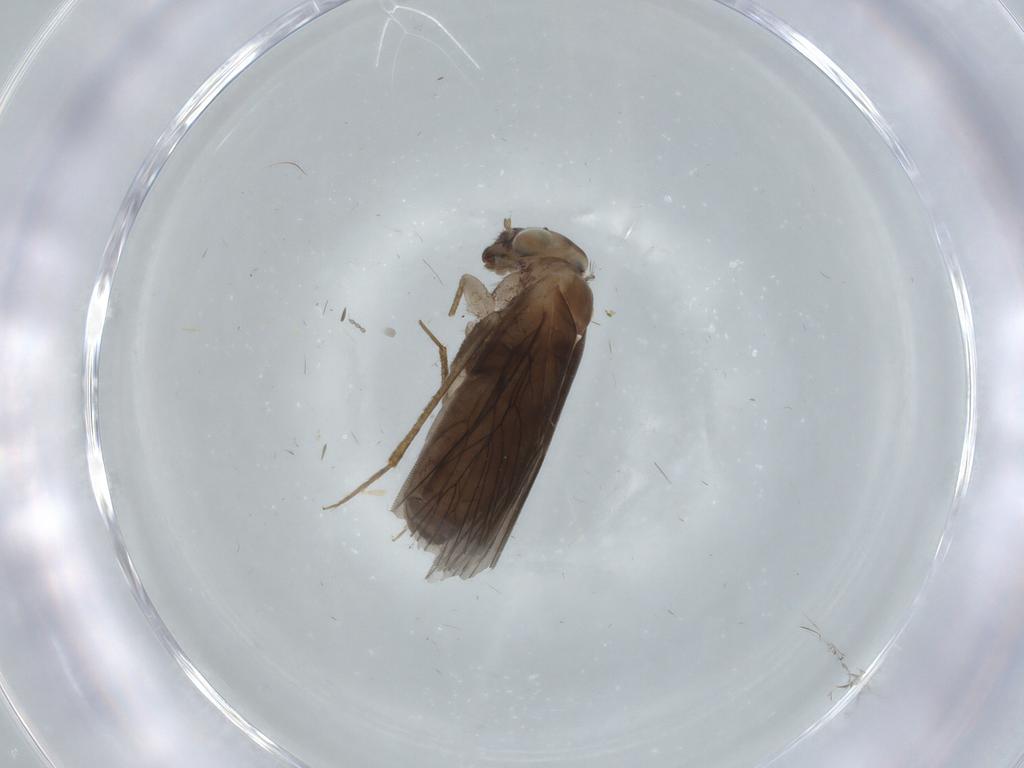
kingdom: Animalia
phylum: Arthropoda
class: Insecta
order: Psocodea
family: Lepidopsocidae
